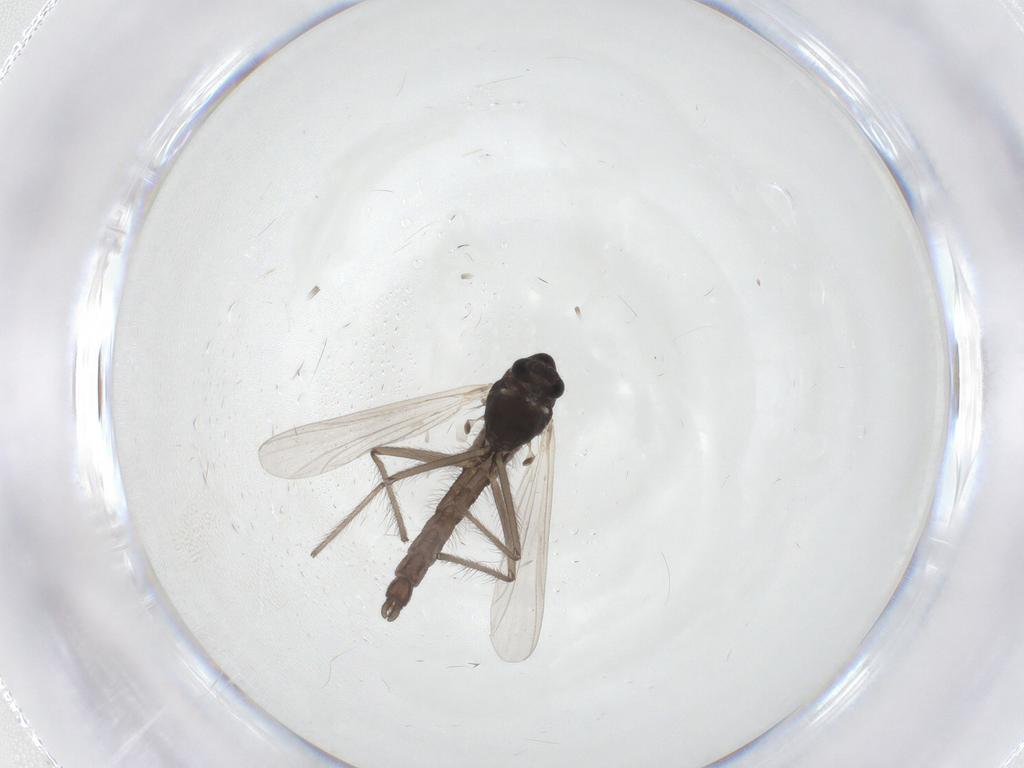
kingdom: Animalia
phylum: Arthropoda
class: Insecta
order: Diptera
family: Chironomidae
